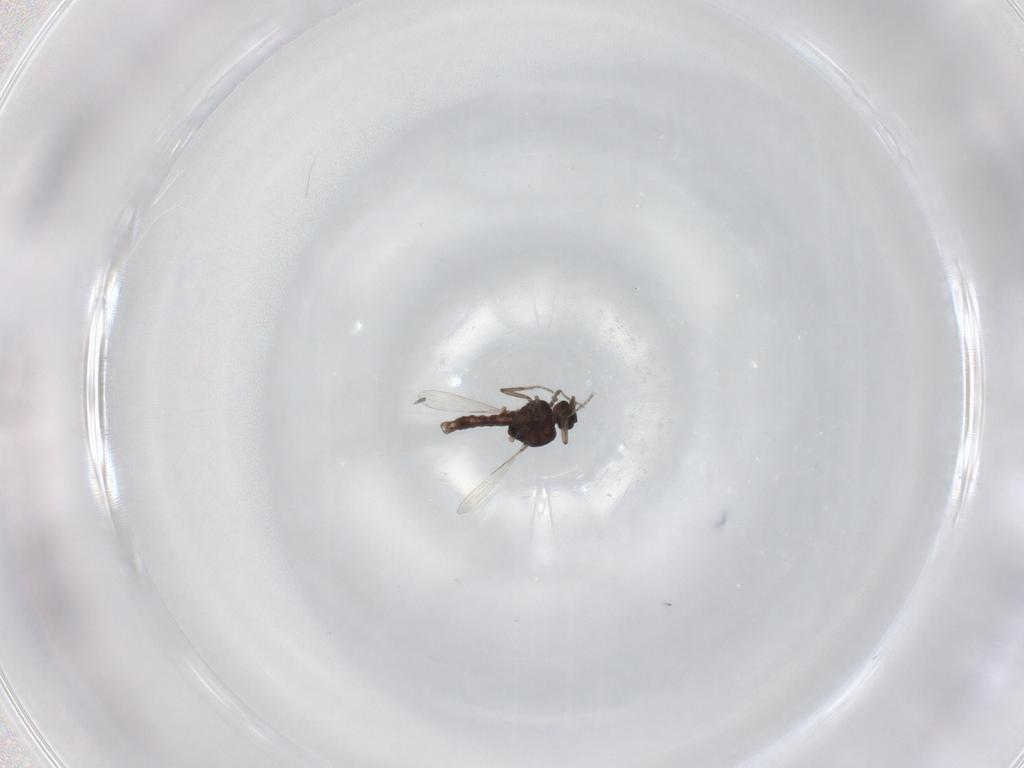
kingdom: Animalia
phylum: Arthropoda
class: Insecta
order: Diptera
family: Ceratopogonidae
